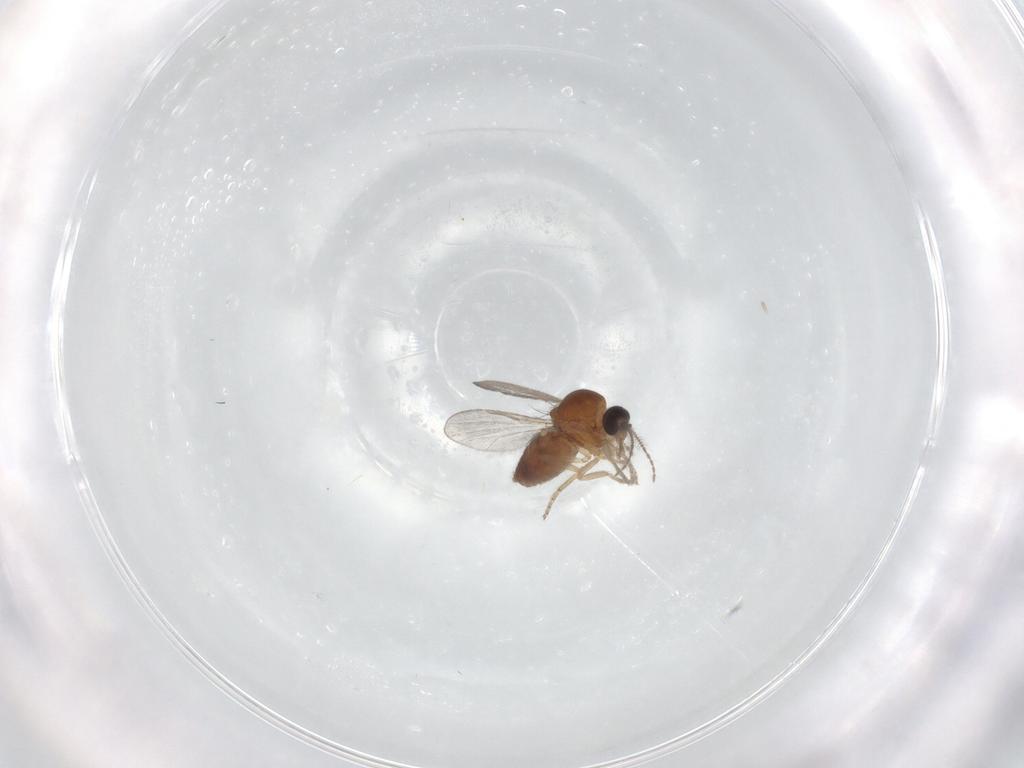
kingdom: Animalia
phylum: Arthropoda
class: Insecta
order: Diptera
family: Ceratopogonidae
